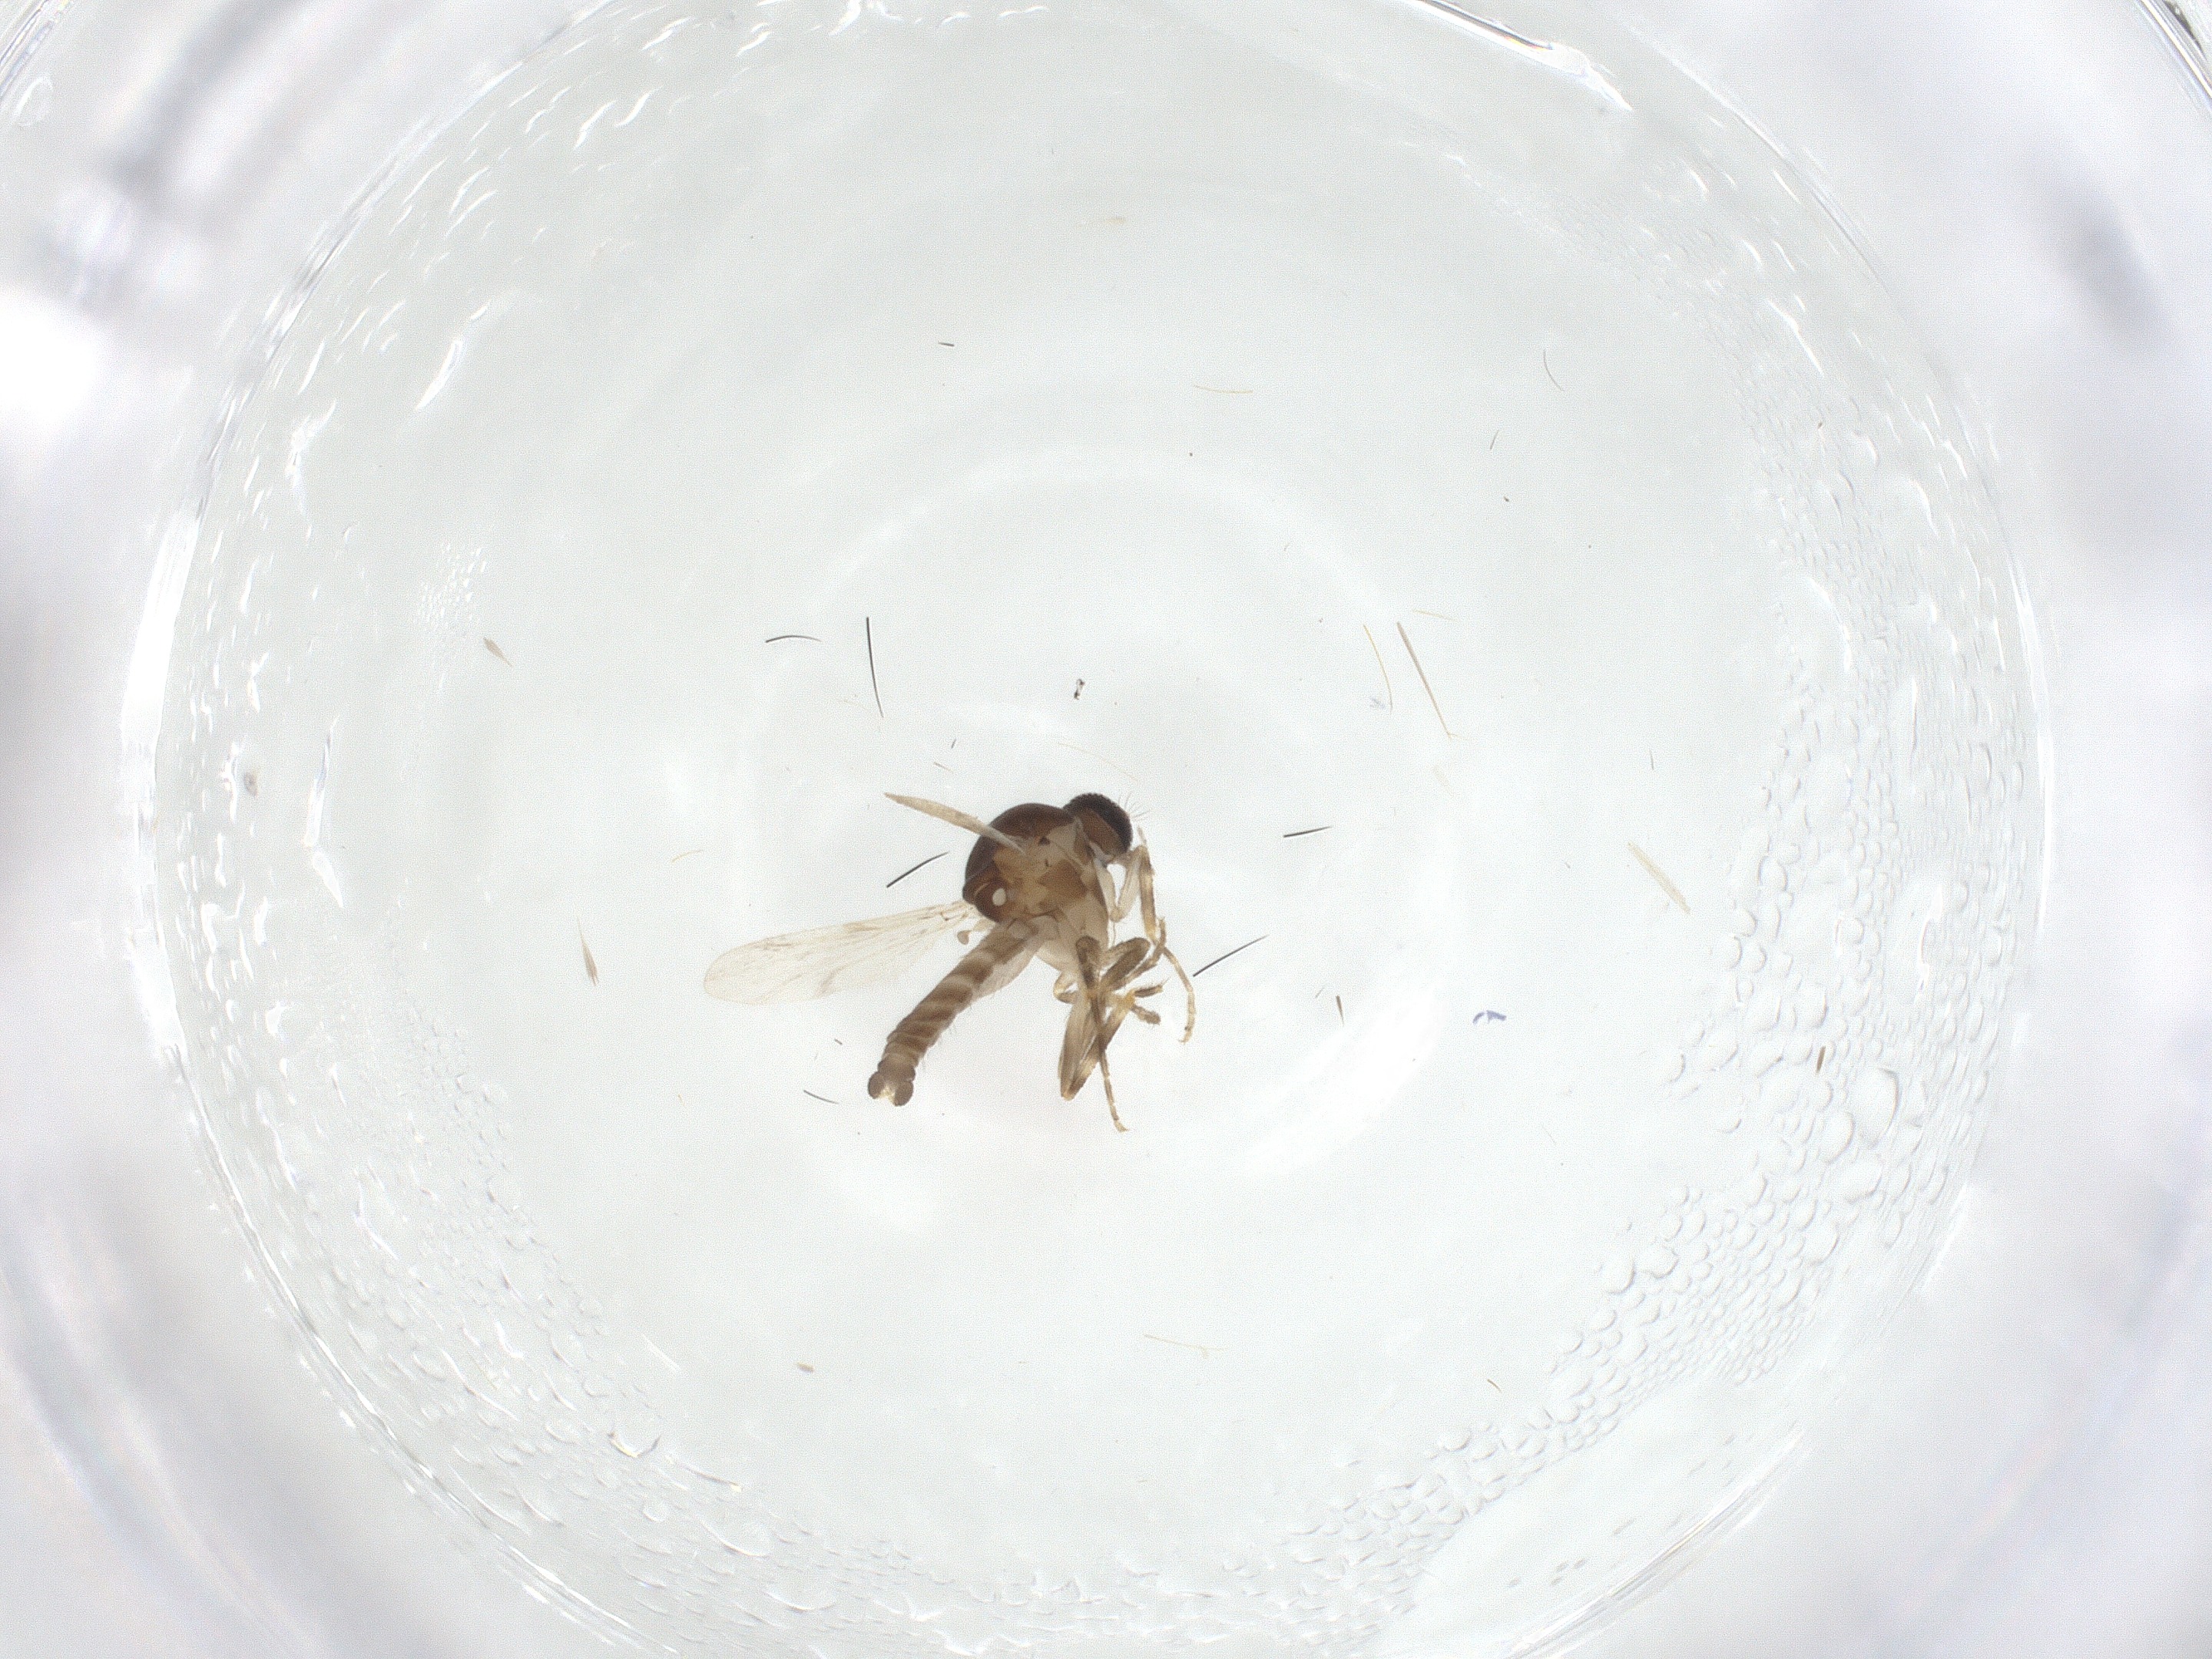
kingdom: Animalia
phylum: Arthropoda
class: Insecta
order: Diptera
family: Ceratopogonidae
